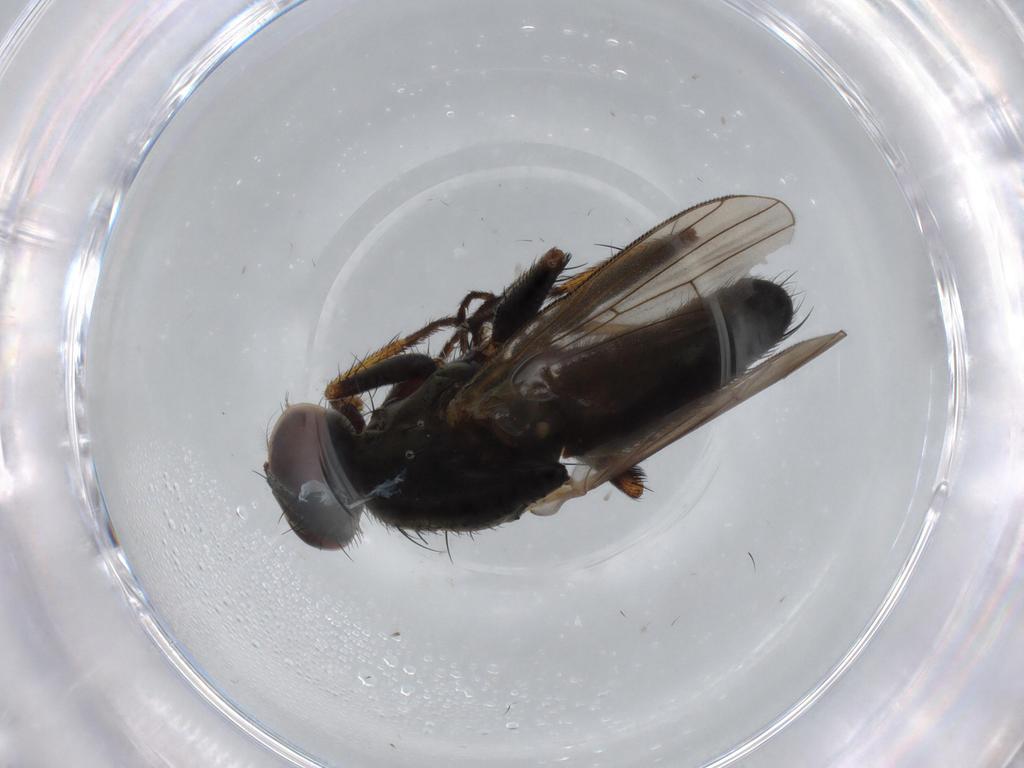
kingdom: Animalia
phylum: Arthropoda
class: Insecta
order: Diptera
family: Muscidae
